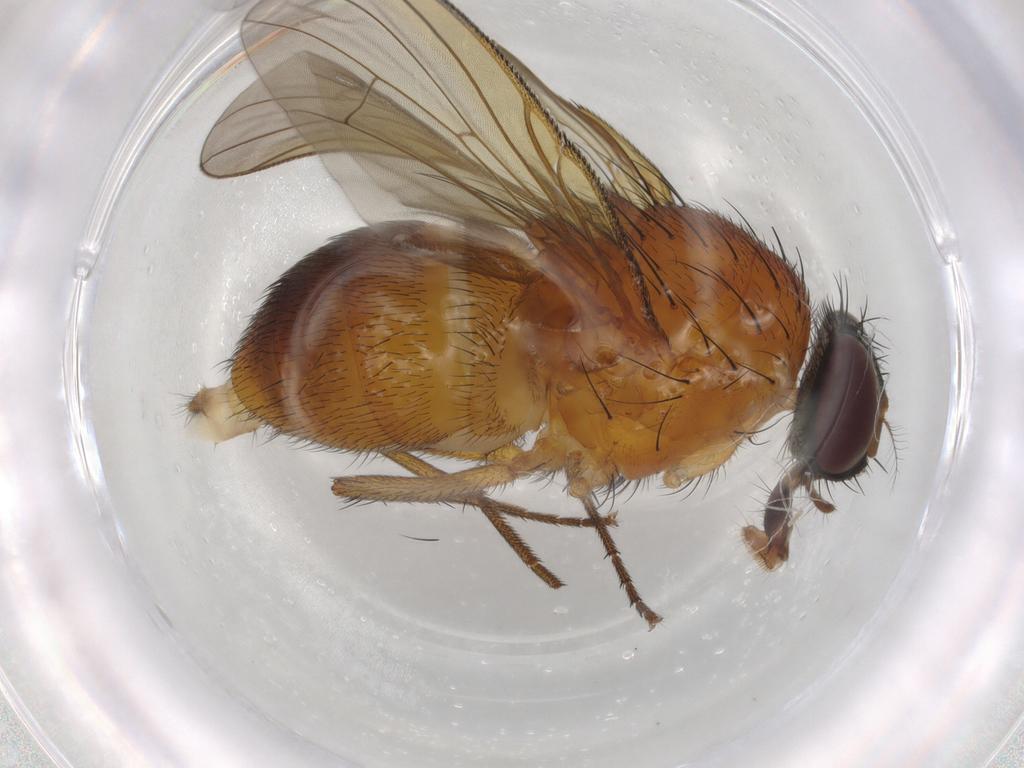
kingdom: Animalia
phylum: Arthropoda
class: Insecta
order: Diptera
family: Muscidae
